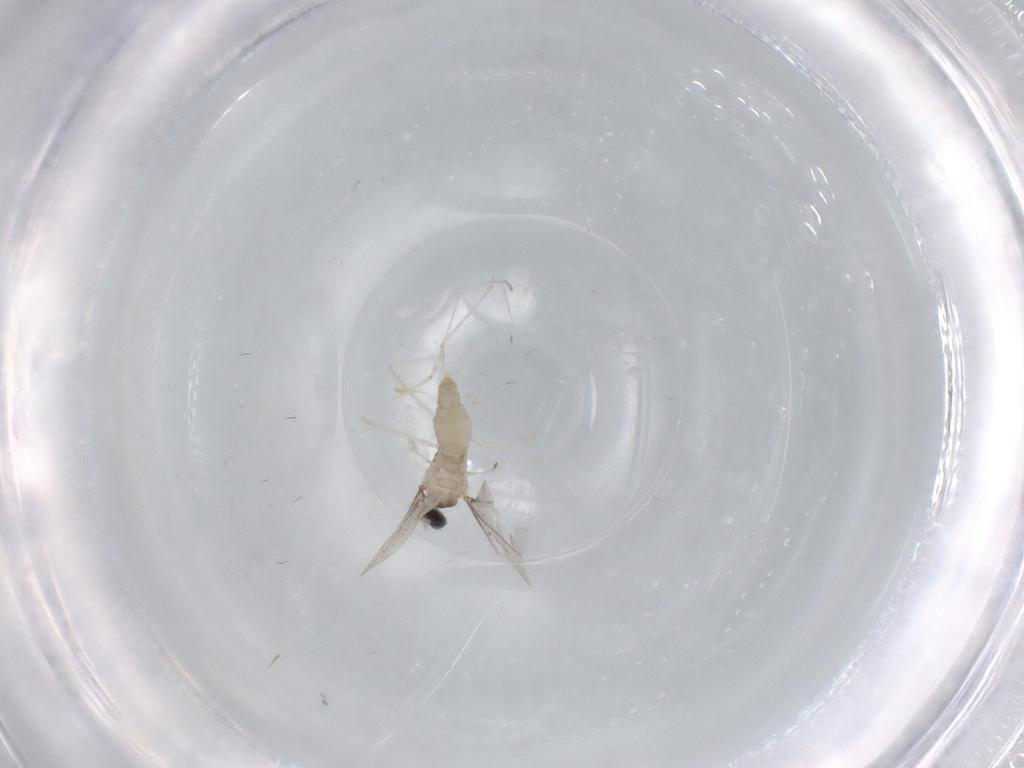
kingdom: Animalia
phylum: Arthropoda
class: Insecta
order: Diptera
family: Cecidomyiidae
